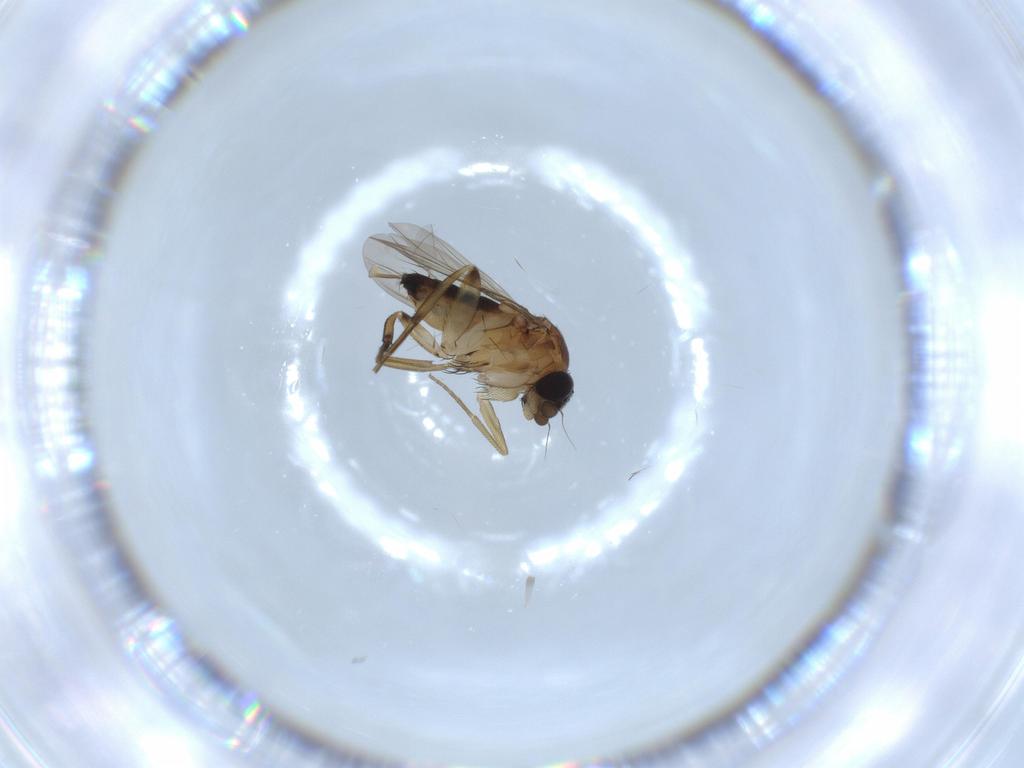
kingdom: Animalia
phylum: Arthropoda
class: Insecta
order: Diptera
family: Phoridae
